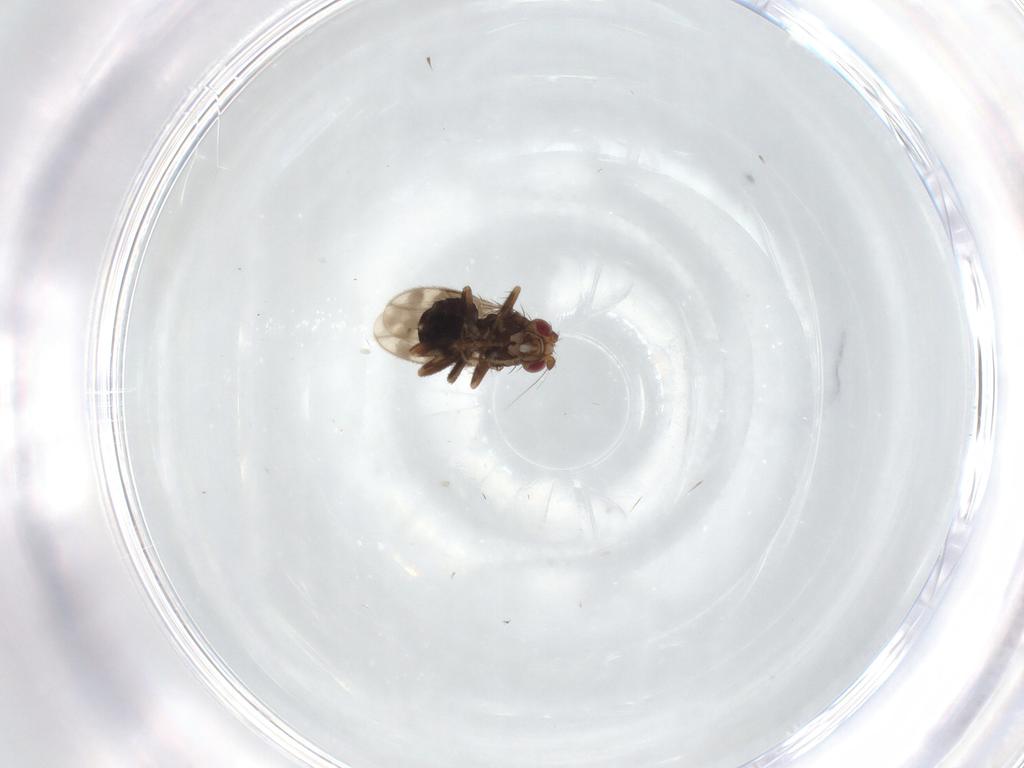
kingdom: Animalia
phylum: Arthropoda
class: Insecta
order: Diptera
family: Sphaeroceridae
